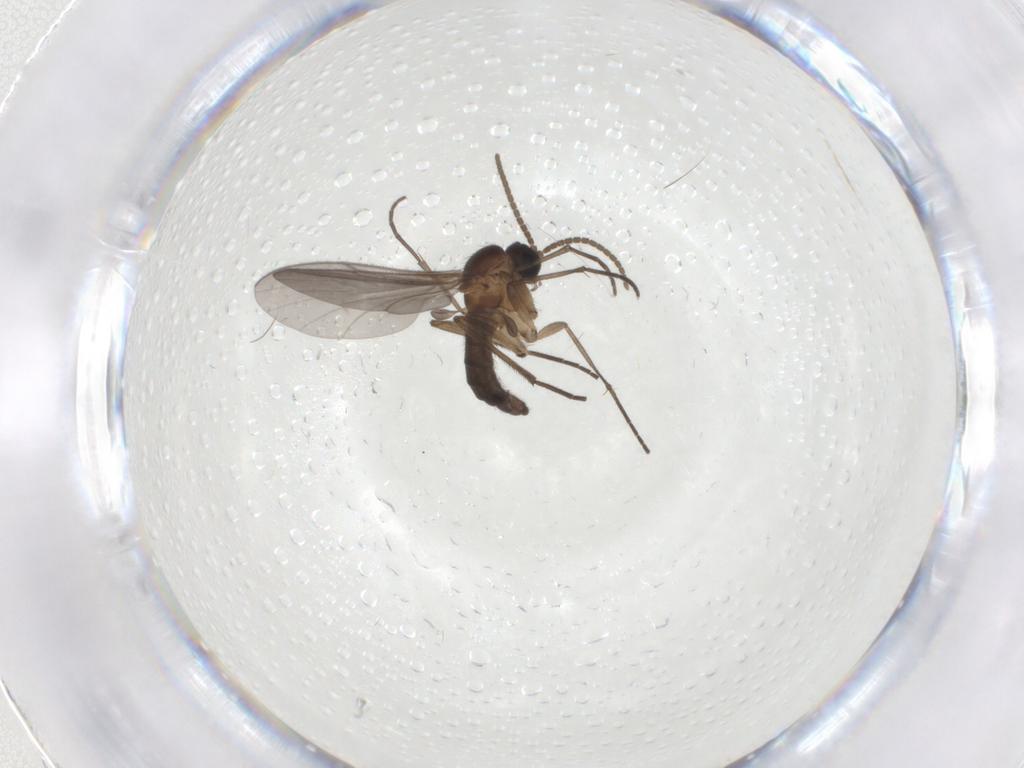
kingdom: Animalia
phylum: Arthropoda
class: Insecta
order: Diptera
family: Sciaridae
